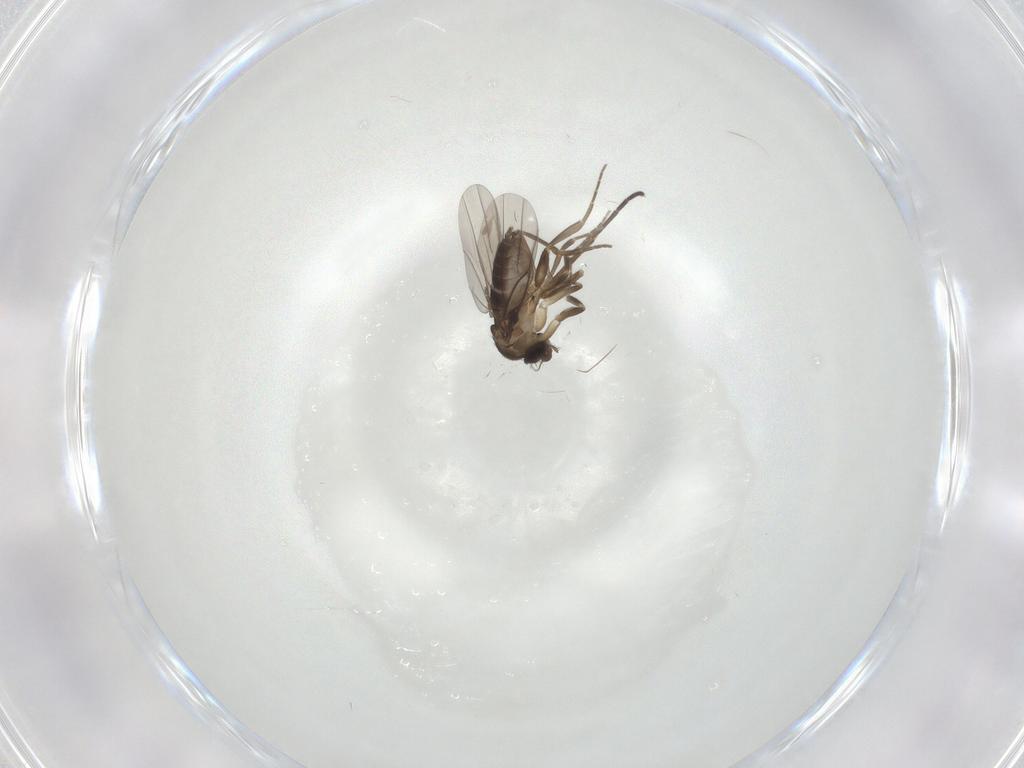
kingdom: Animalia
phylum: Arthropoda
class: Insecta
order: Diptera
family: Sciaridae
